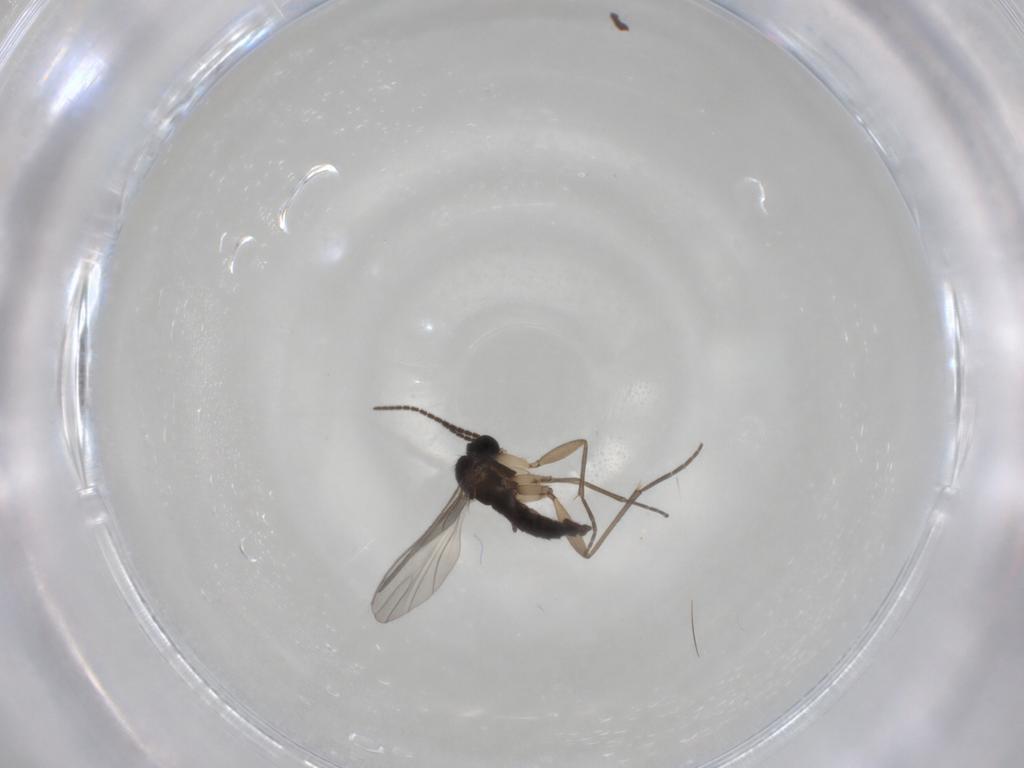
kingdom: Animalia
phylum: Arthropoda
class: Insecta
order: Diptera
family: Sciaridae
